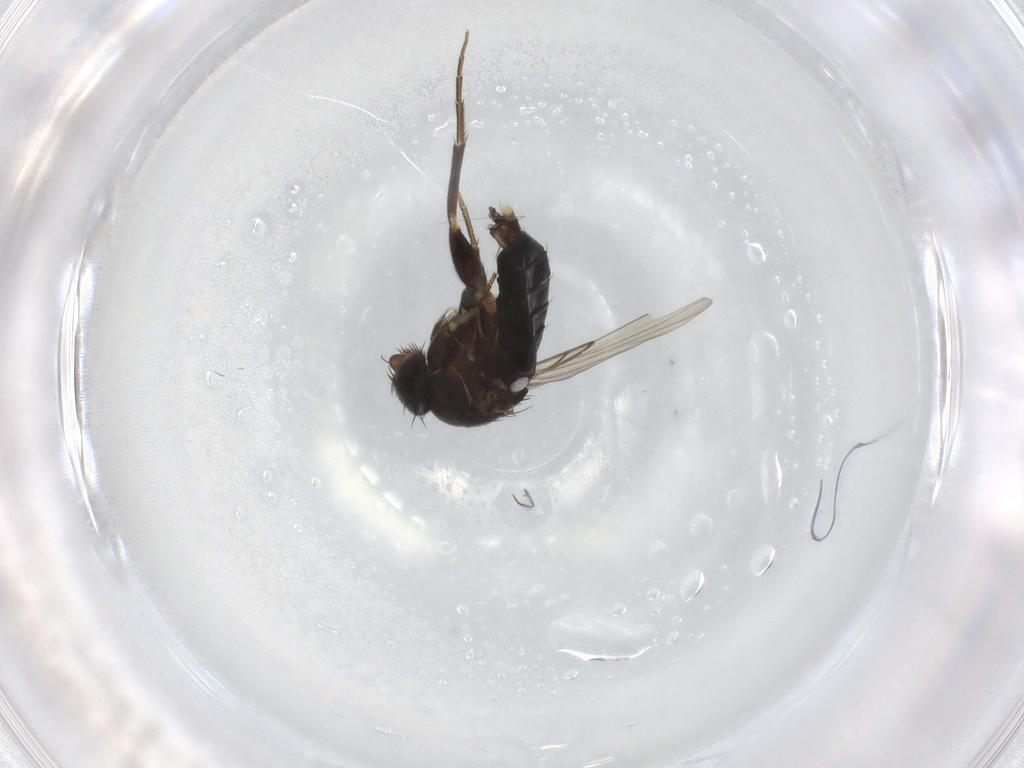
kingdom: Animalia
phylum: Arthropoda
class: Insecta
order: Diptera
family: Phoridae
